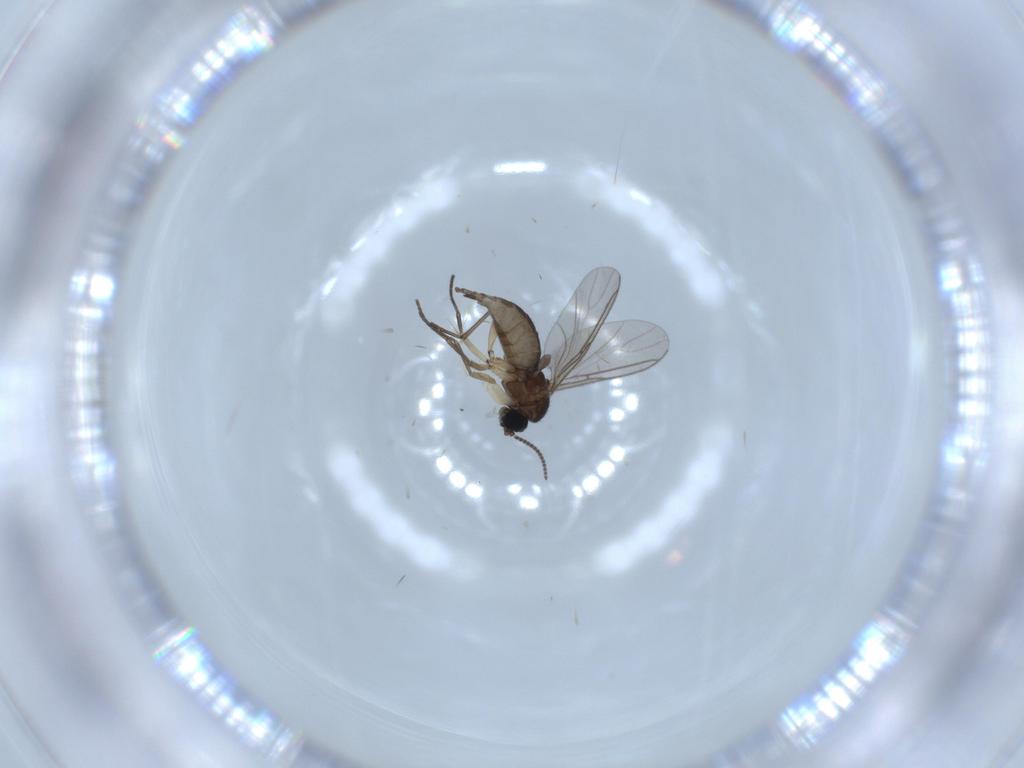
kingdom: Animalia
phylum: Arthropoda
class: Insecta
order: Diptera
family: Sciaridae
